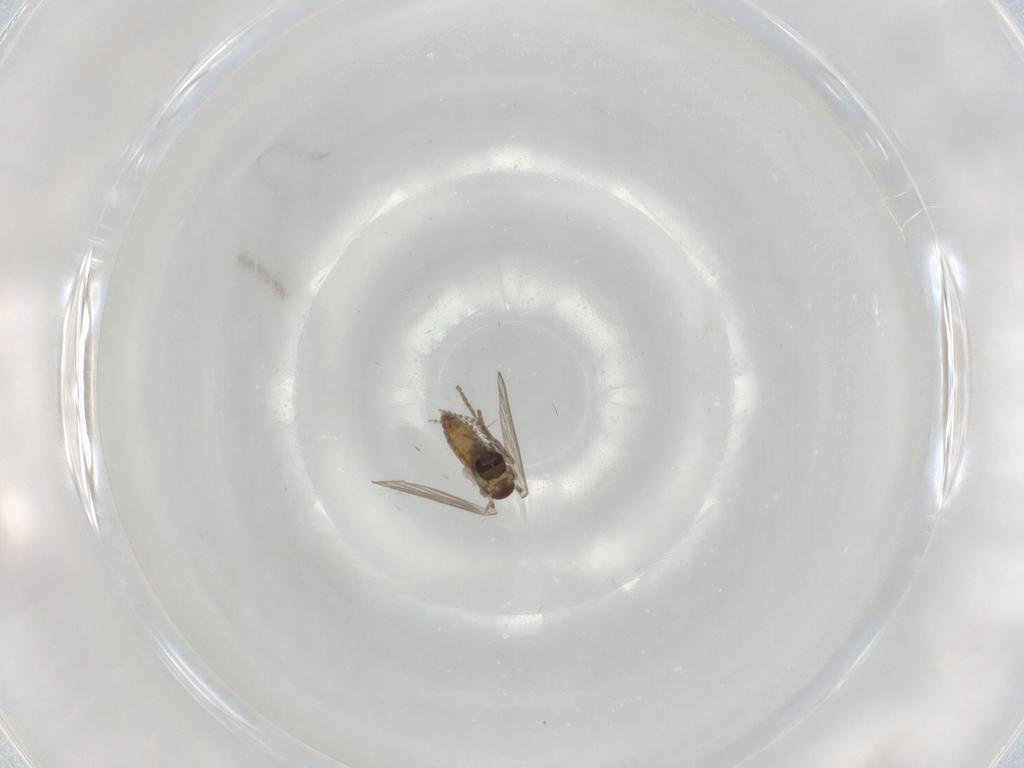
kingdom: Animalia
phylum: Arthropoda
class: Insecta
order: Diptera
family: Psychodidae
